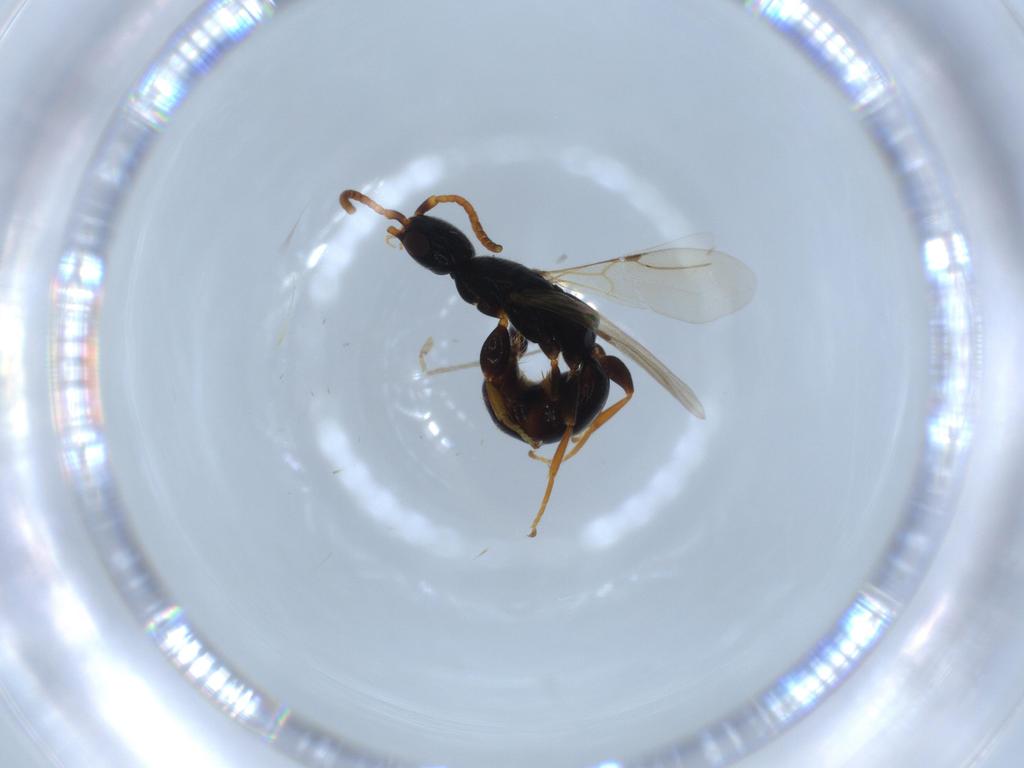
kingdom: Animalia
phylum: Arthropoda
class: Insecta
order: Hymenoptera
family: Bethylidae
